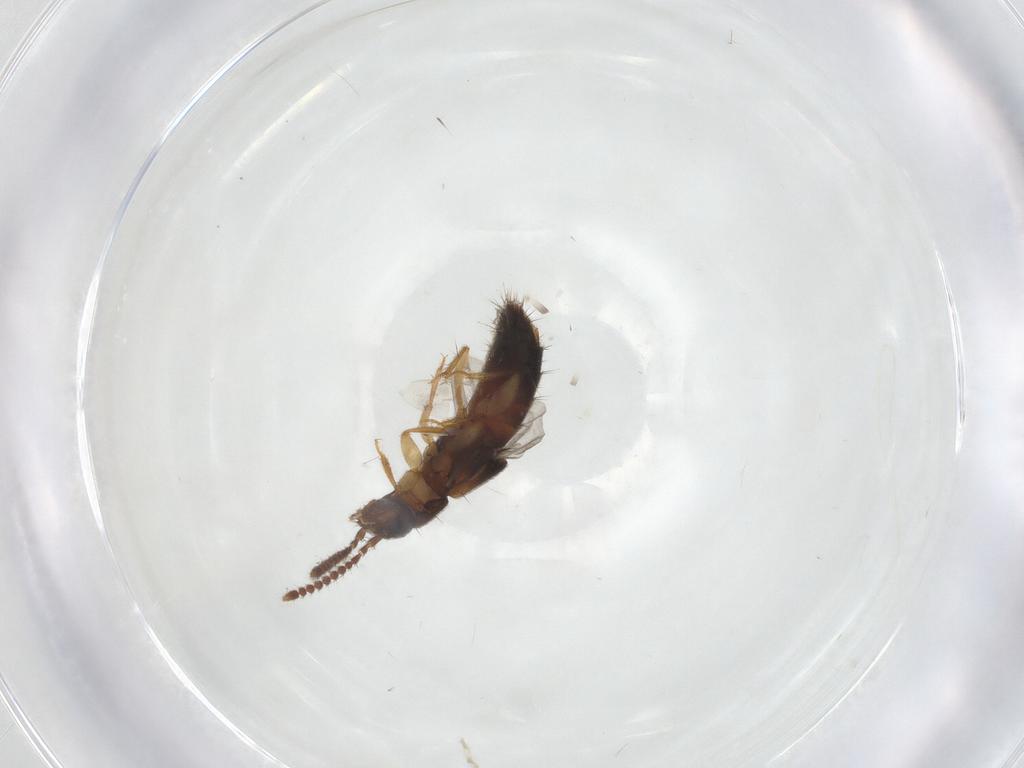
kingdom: Animalia
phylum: Arthropoda
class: Insecta
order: Coleoptera
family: Staphylinidae
